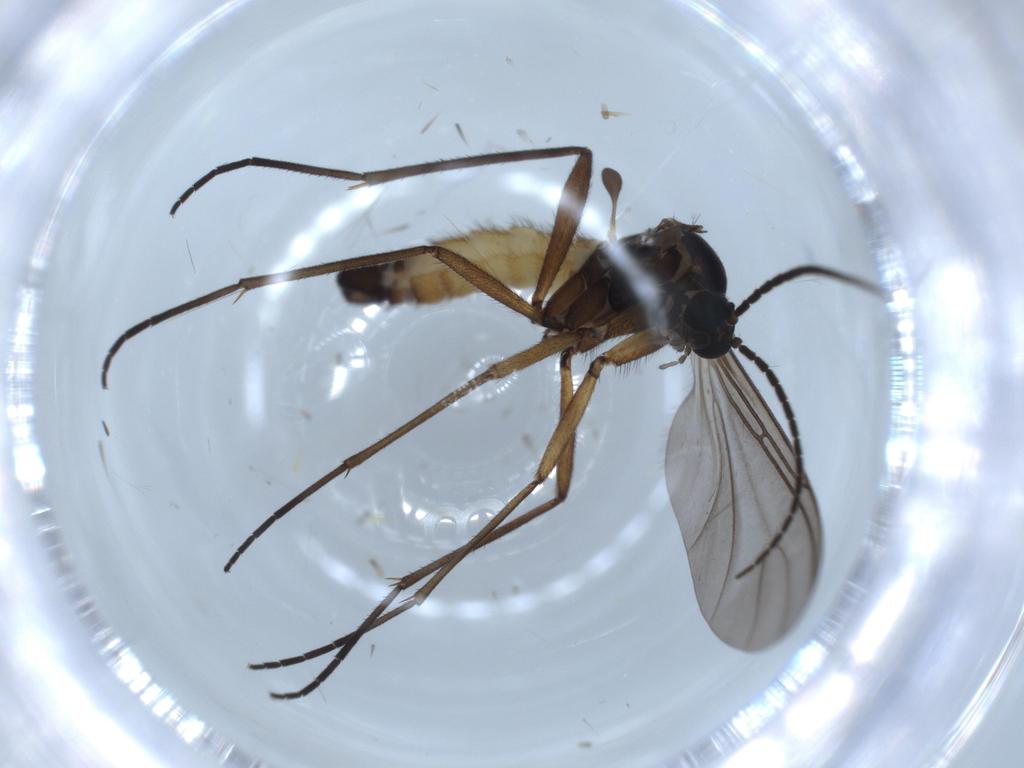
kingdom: Animalia
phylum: Arthropoda
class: Insecta
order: Diptera
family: Sciaridae
